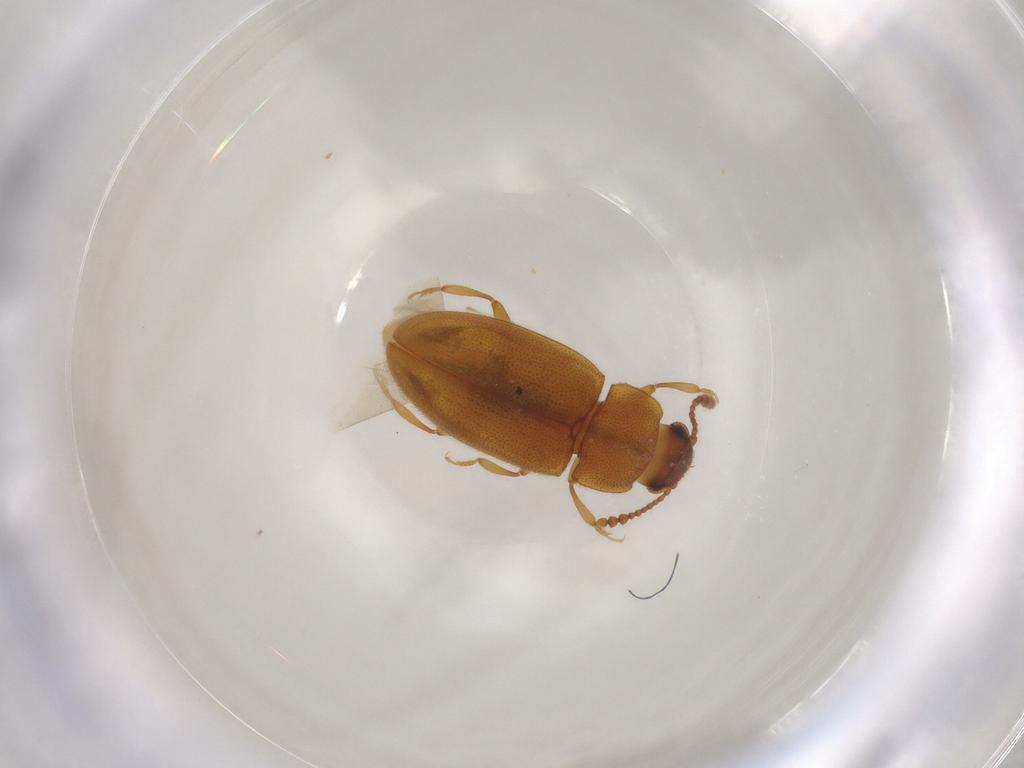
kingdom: Animalia
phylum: Arthropoda
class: Insecta
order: Coleoptera
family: Erotylidae
